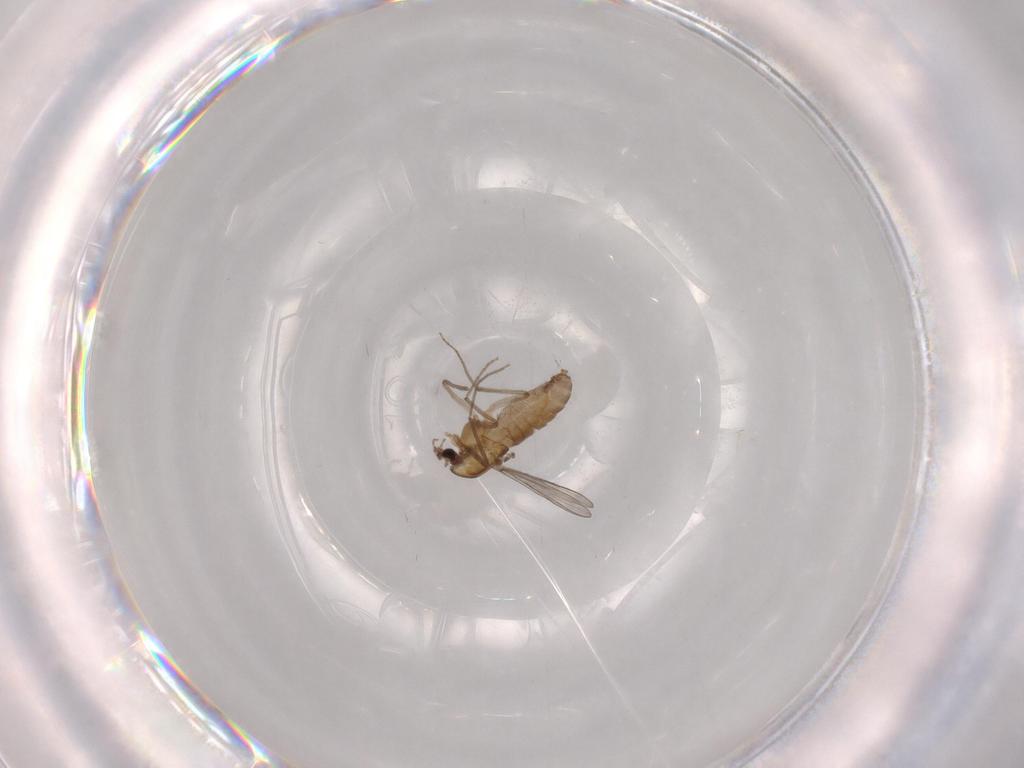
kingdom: Animalia
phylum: Arthropoda
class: Insecta
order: Diptera
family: Chironomidae
